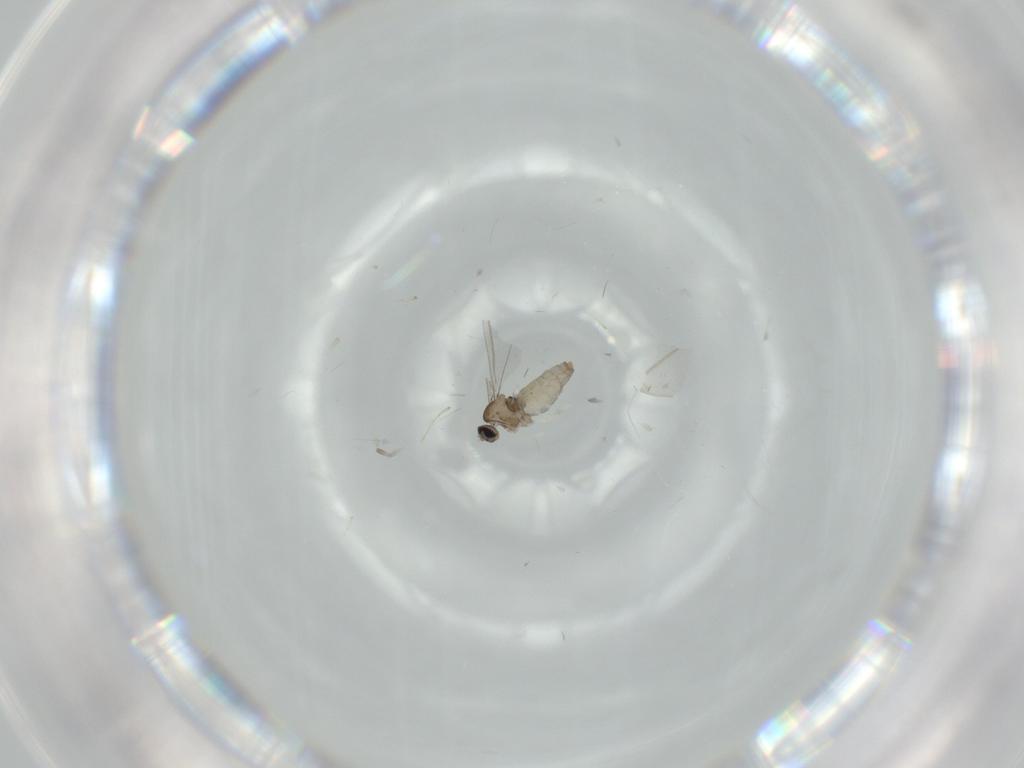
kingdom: Animalia
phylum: Arthropoda
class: Insecta
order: Diptera
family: Cecidomyiidae
